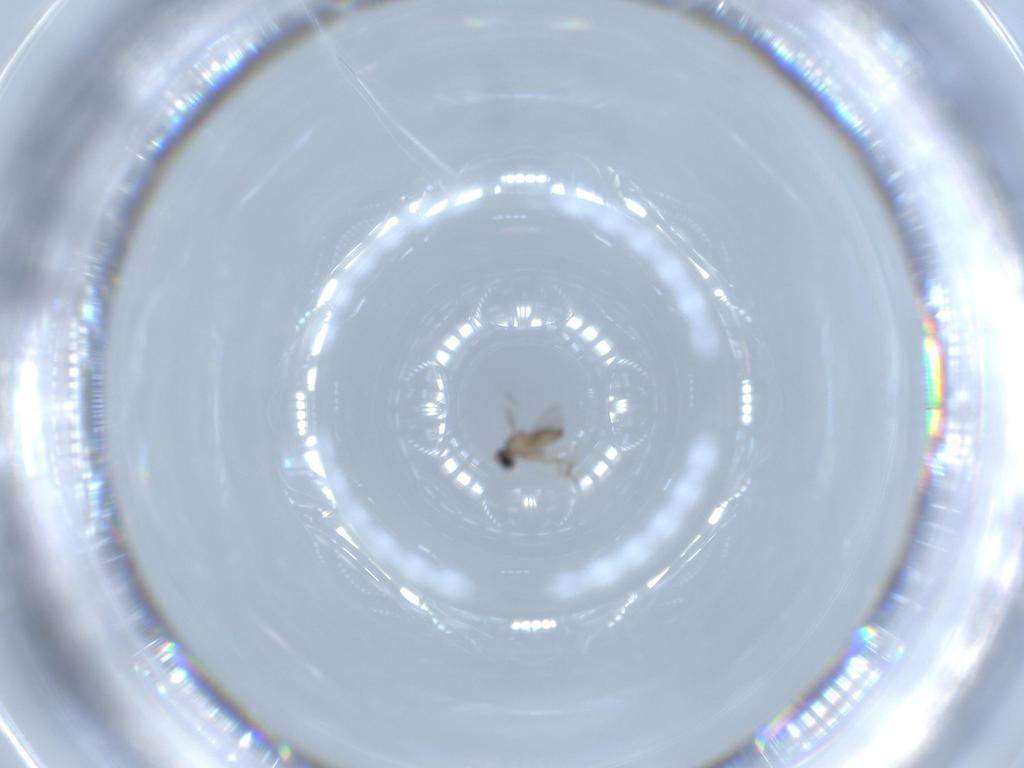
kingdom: Animalia
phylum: Arthropoda
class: Insecta
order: Diptera
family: Cecidomyiidae
